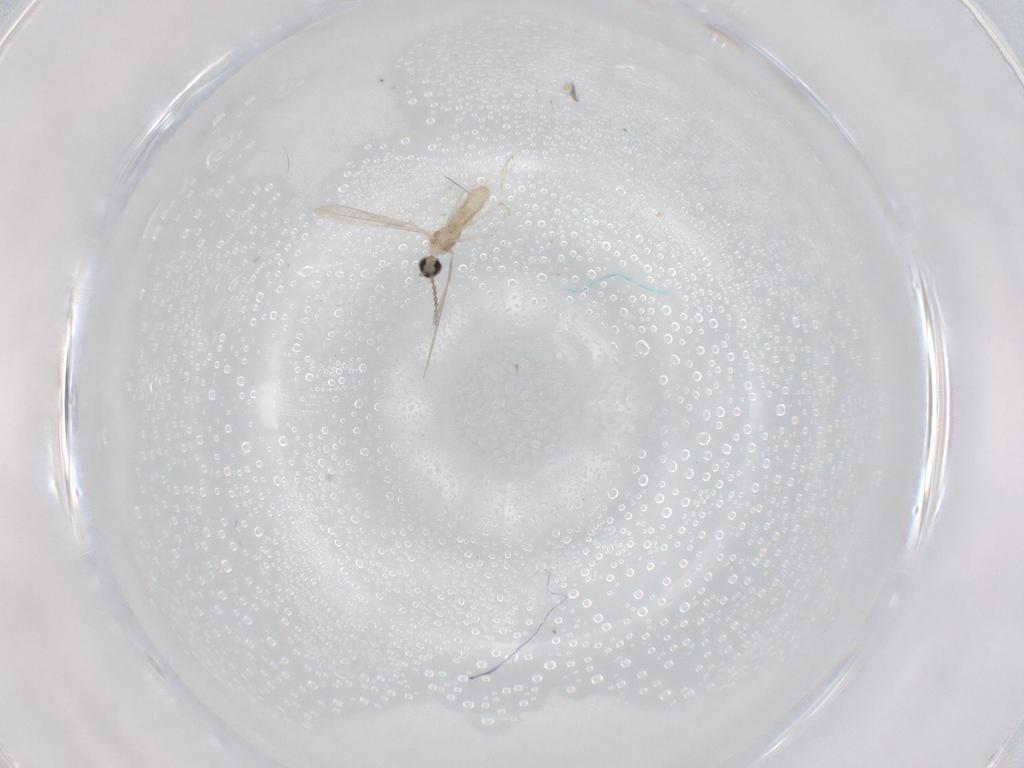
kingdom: Animalia
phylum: Arthropoda
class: Insecta
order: Diptera
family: Cecidomyiidae
